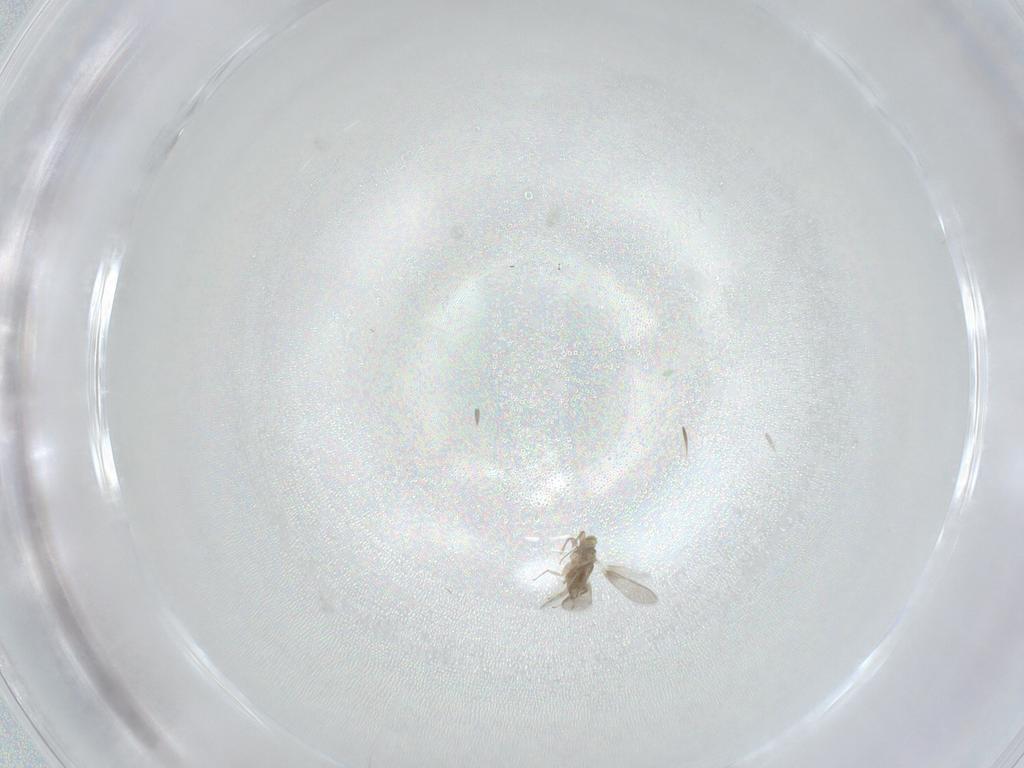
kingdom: Animalia
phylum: Arthropoda
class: Insecta
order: Hymenoptera
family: Aphelinidae
